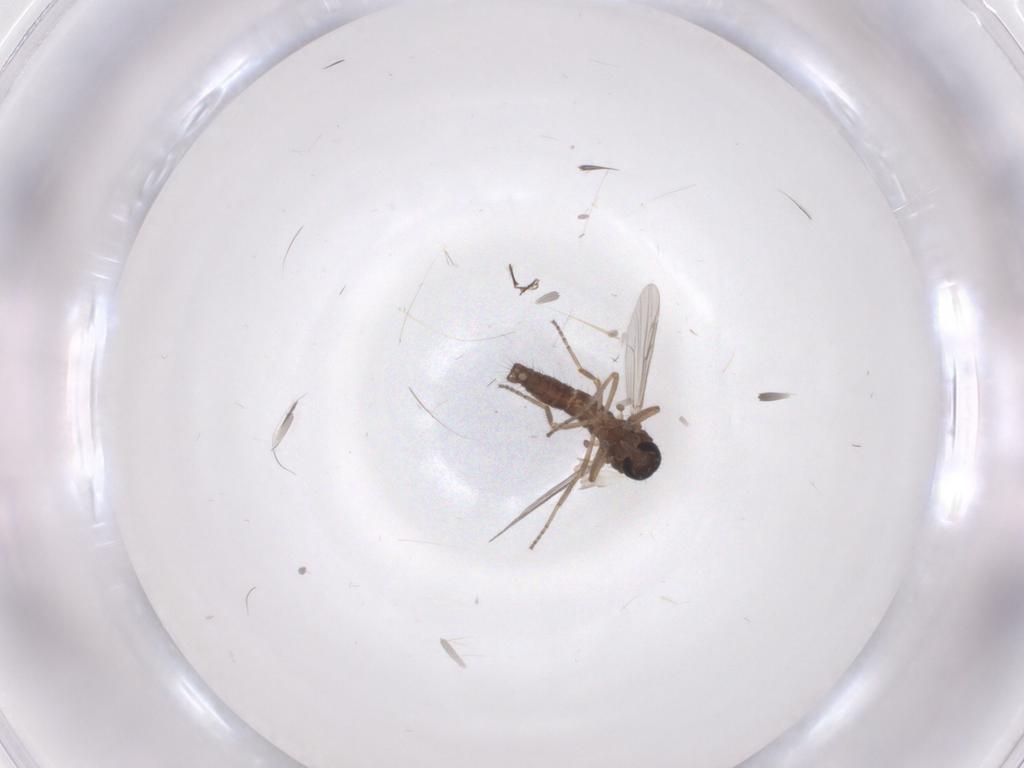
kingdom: Animalia
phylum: Arthropoda
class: Insecta
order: Diptera
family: Ceratopogonidae
